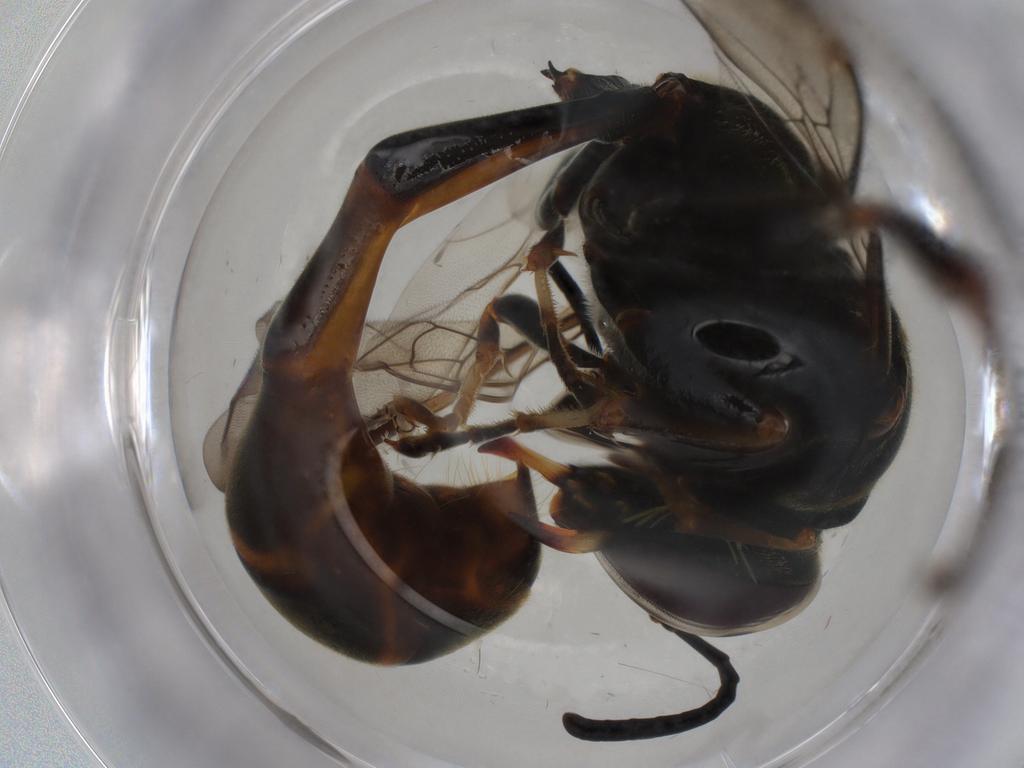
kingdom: Animalia
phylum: Arthropoda
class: Insecta
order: Hymenoptera
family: Crabronidae
